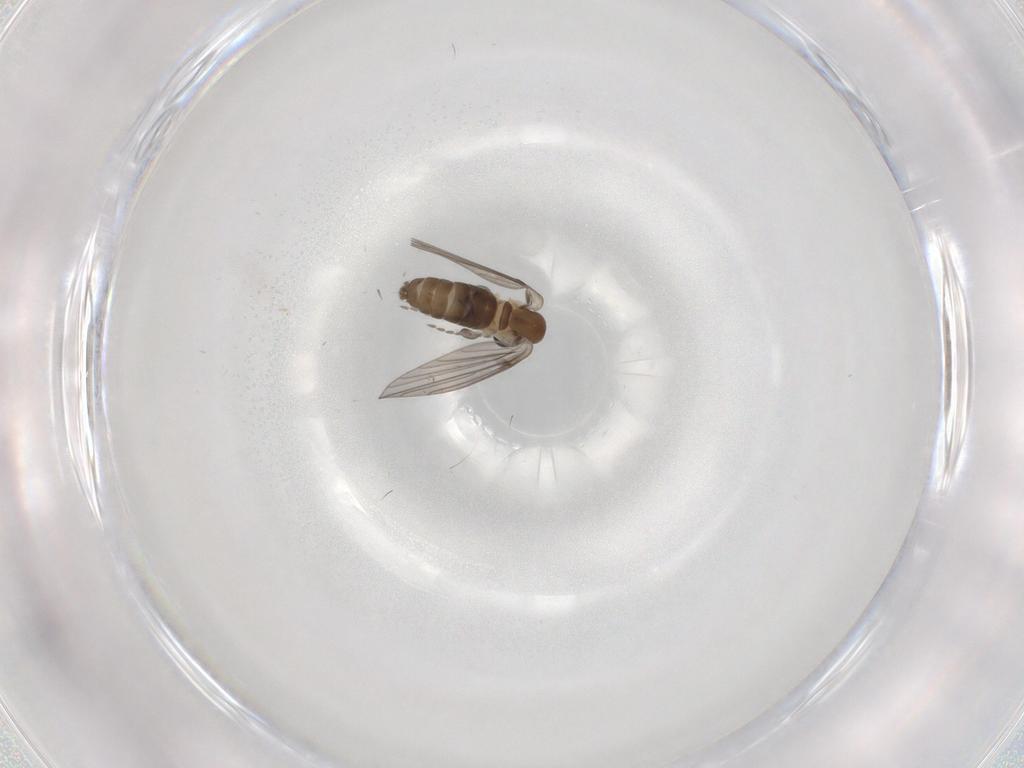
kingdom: Animalia
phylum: Arthropoda
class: Insecta
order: Diptera
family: Psychodidae
